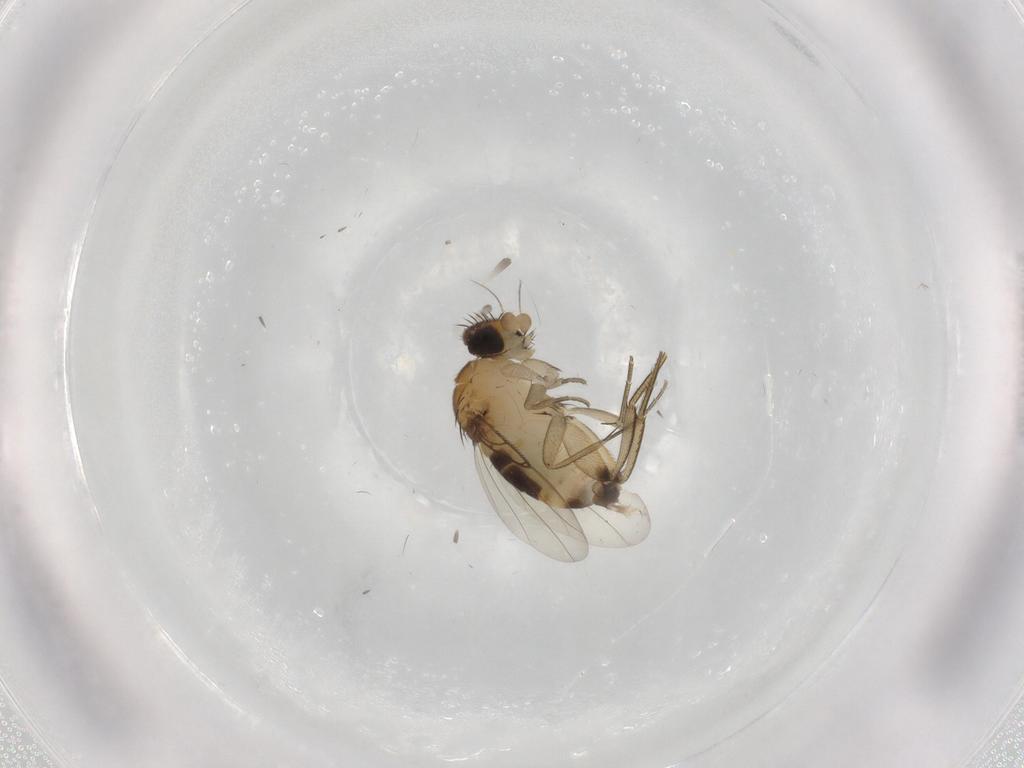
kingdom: Animalia
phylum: Arthropoda
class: Insecta
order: Diptera
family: Phoridae
